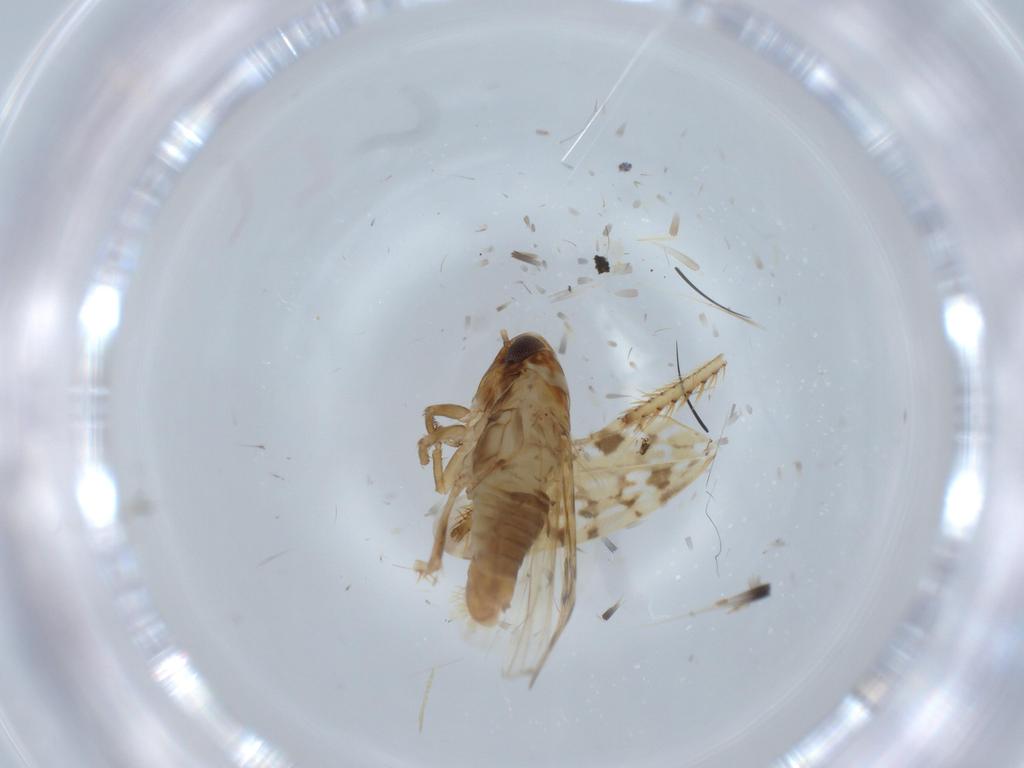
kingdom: Animalia
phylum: Arthropoda
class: Insecta
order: Hemiptera
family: Cicadellidae
